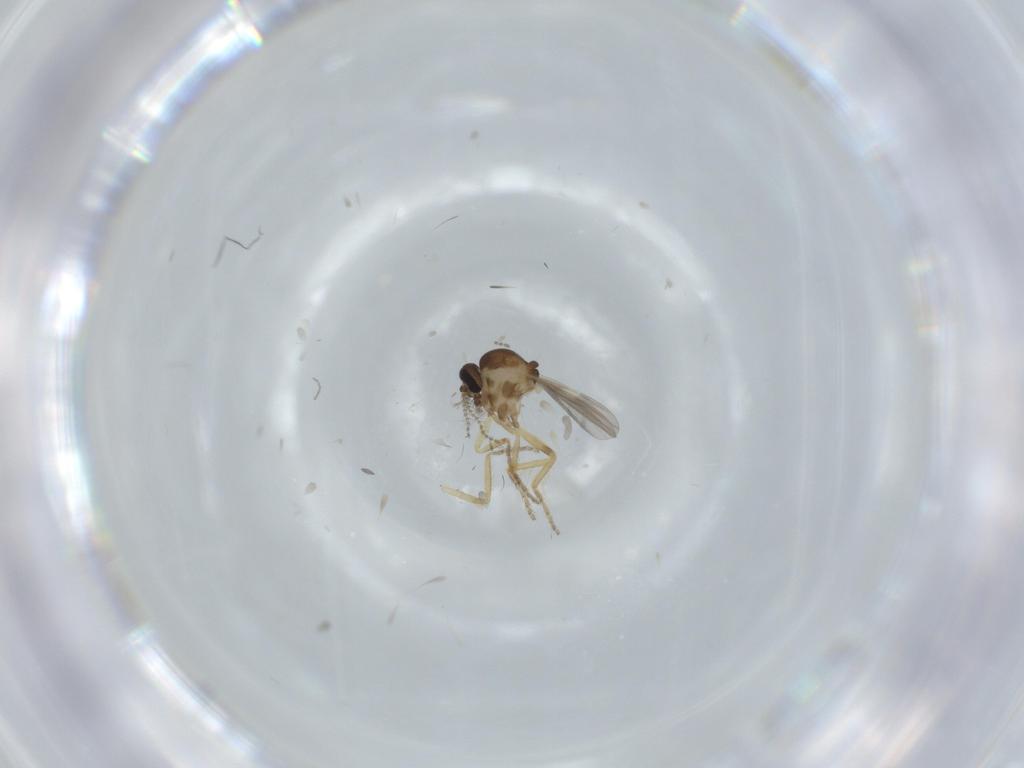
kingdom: Animalia
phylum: Arthropoda
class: Insecta
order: Diptera
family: Ceratopogonidae
